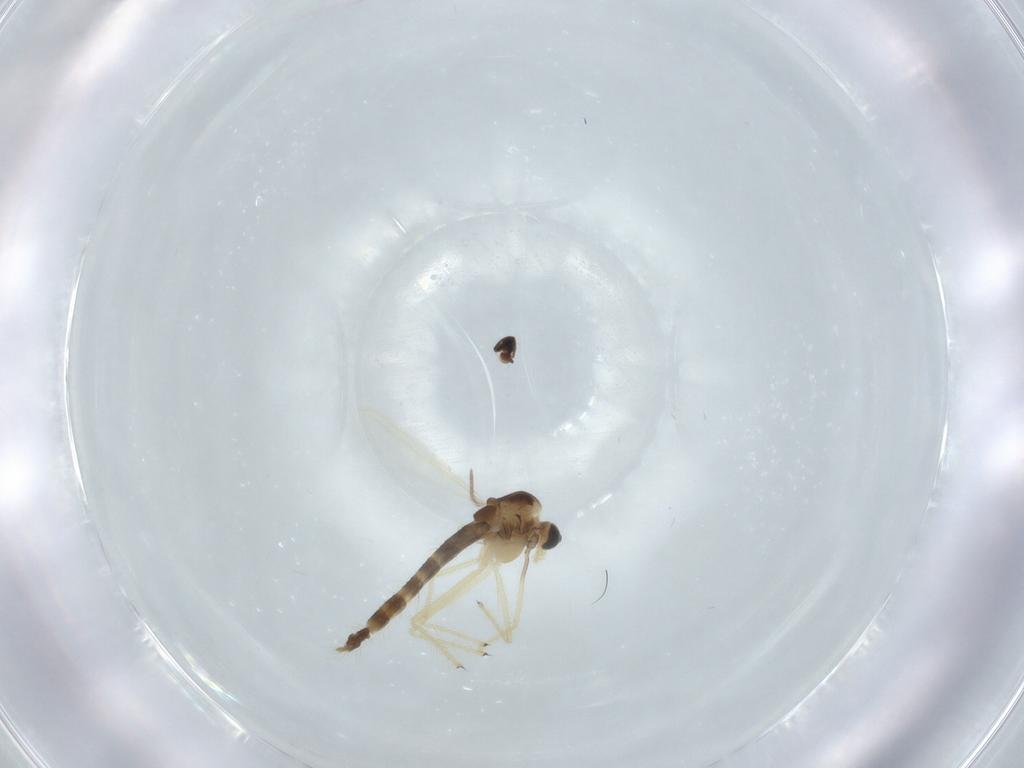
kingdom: Animalia
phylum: Arthropoda
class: Insecta
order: Diptera
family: Chironomidae
